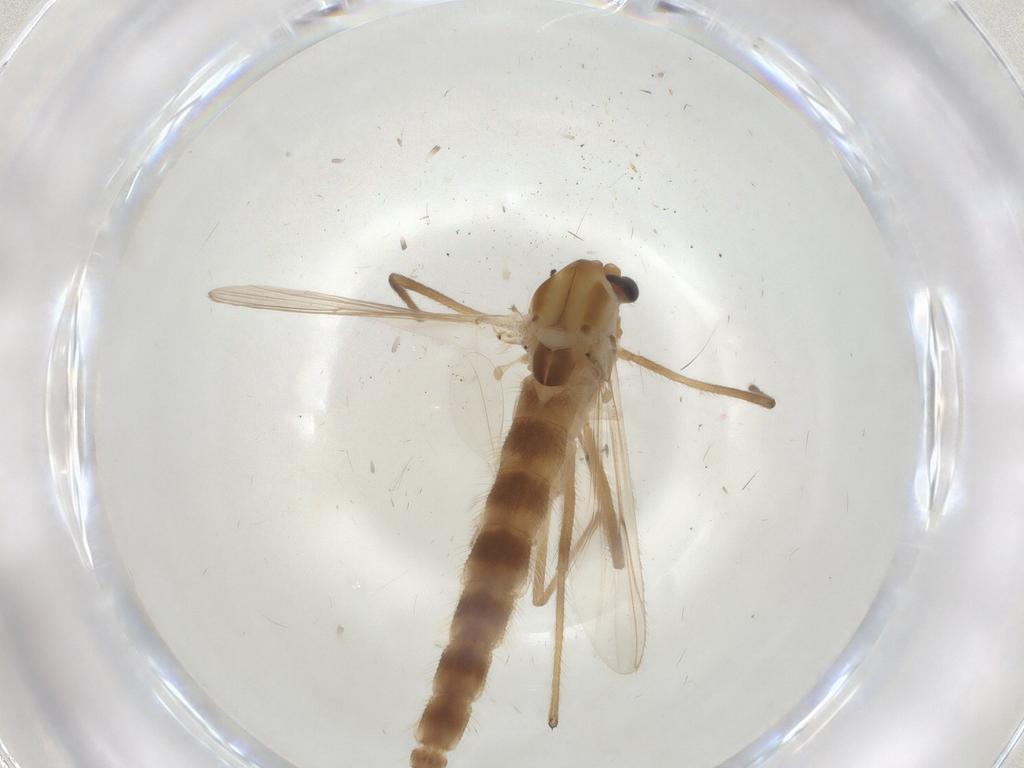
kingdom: Animalia
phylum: Arthropoda
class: Insecta
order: Diptera
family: Chironomidae
